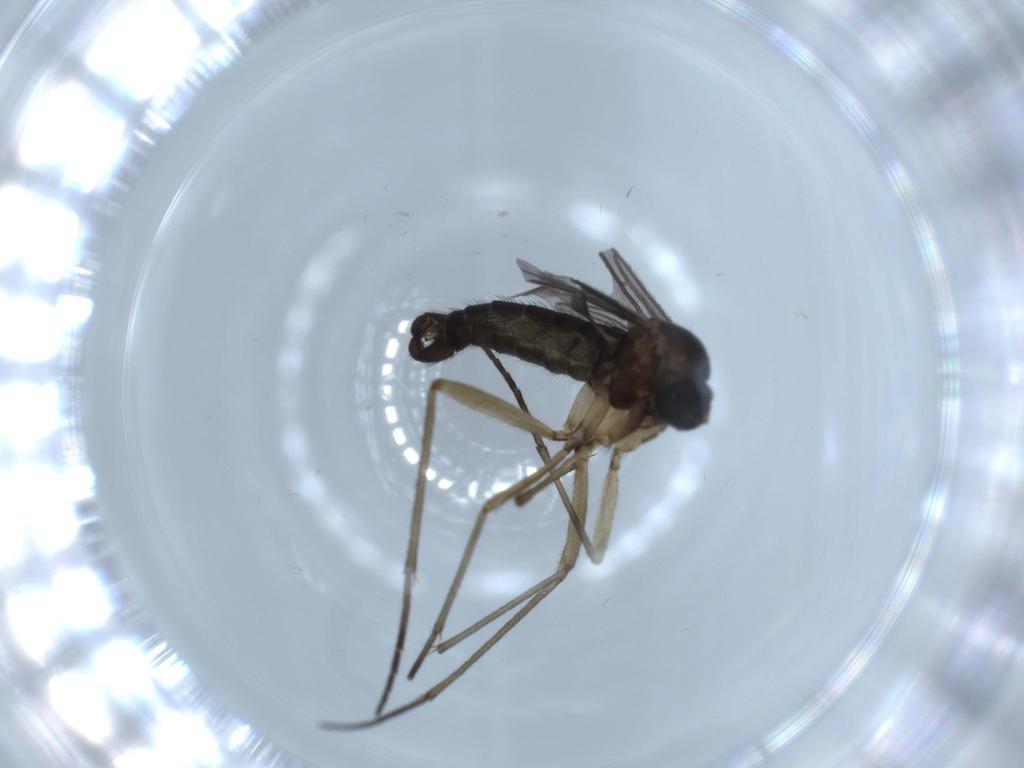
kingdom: Animalia
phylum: Arthropoda
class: Insecta
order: Diptera
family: Sciaridae
